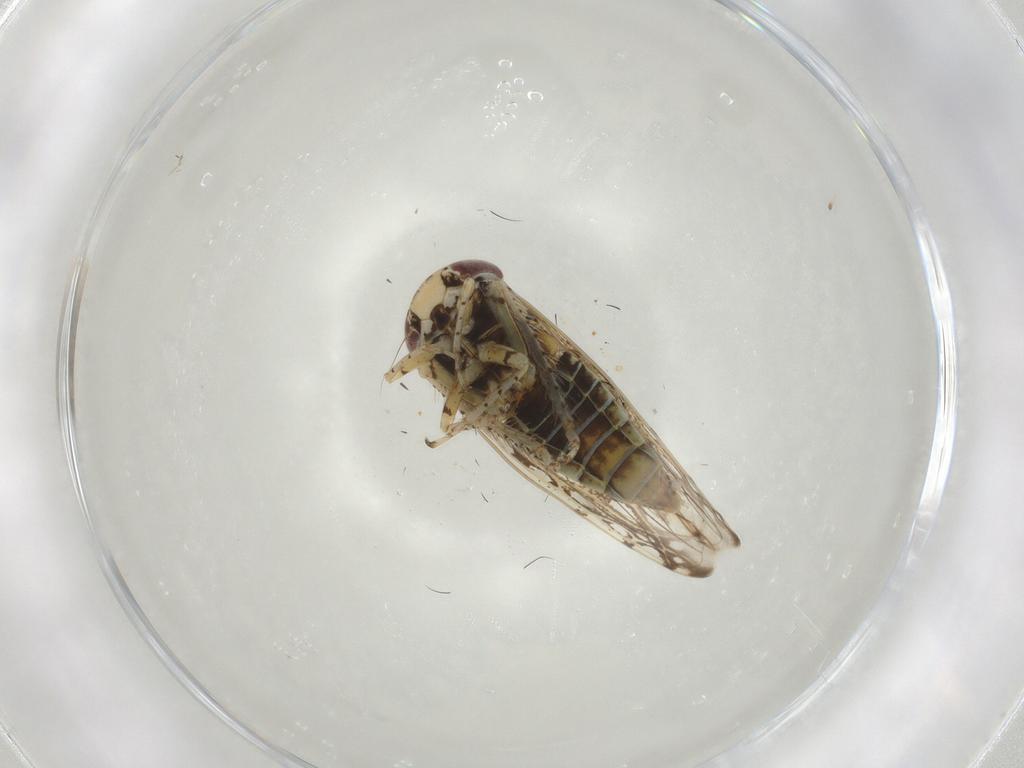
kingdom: Animalia
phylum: Arthropoda
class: Insecta
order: Hemiptera
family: Cicadellidae
